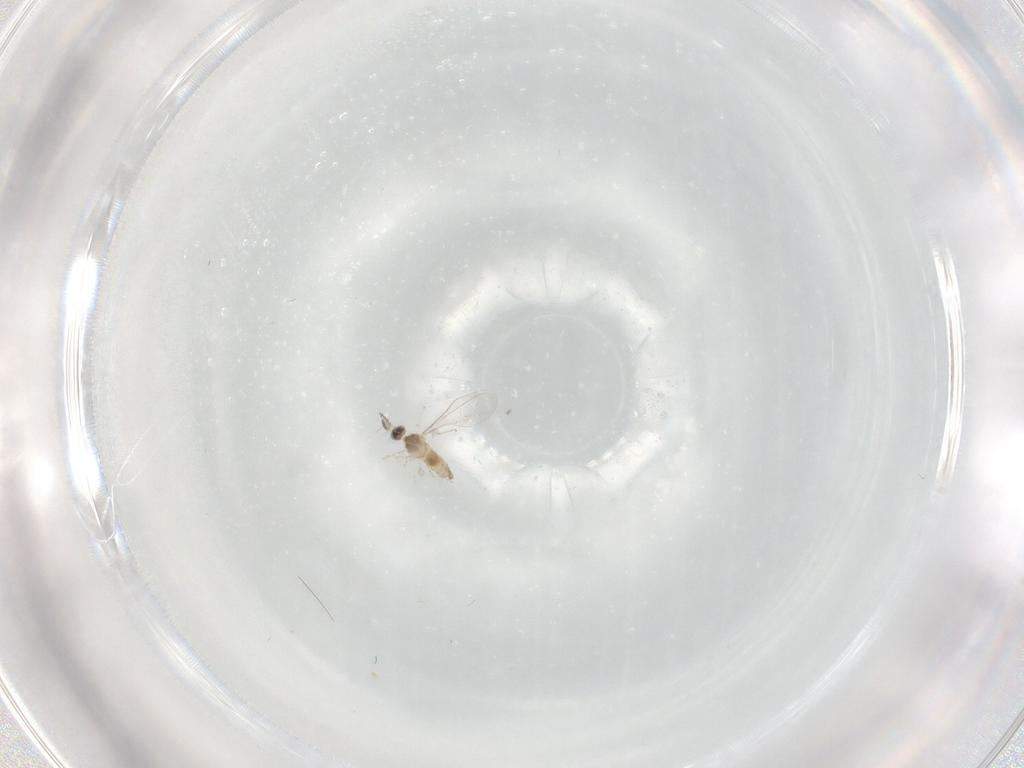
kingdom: Animalia
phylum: Arthropoda
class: Insecta
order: Diptera
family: Cecidomyiidae
